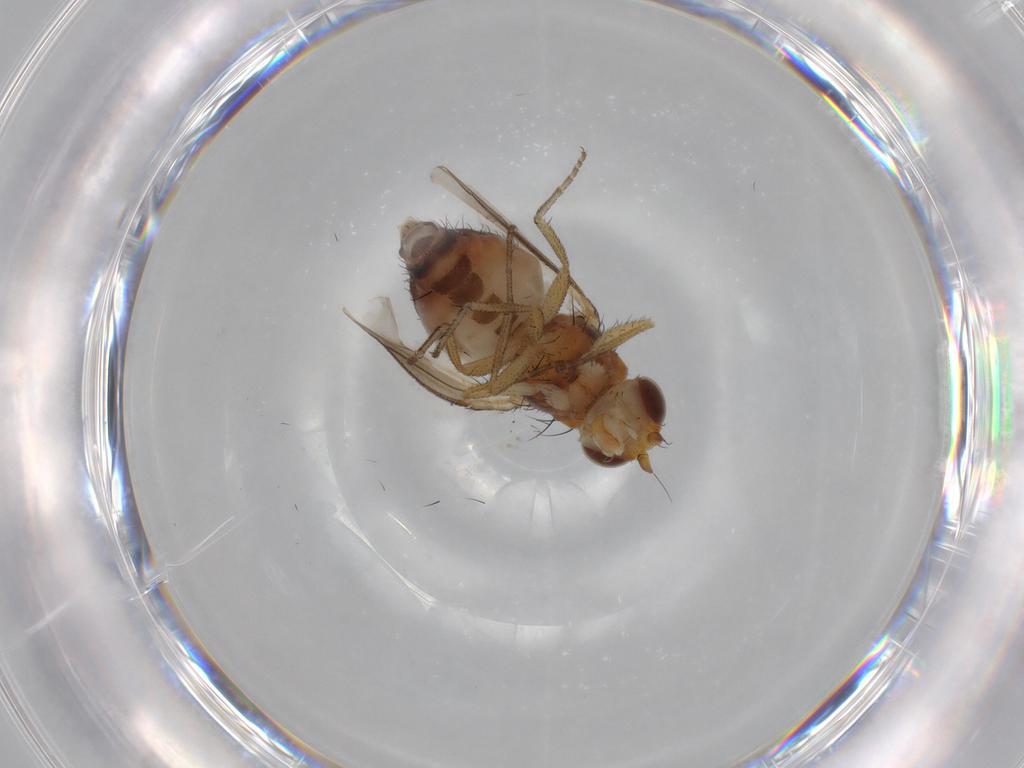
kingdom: Animalia
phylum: Arthropoda
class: Insecta
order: Diptera
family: Heleomyzidae
